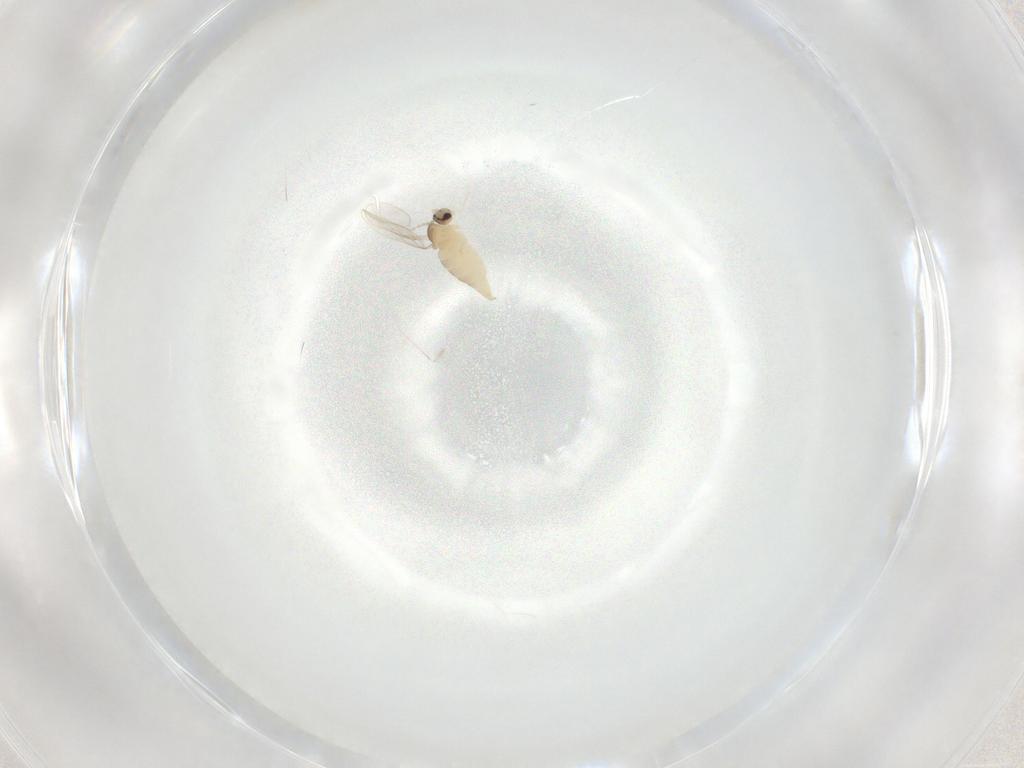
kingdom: Animalia
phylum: Arthropoda
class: Insecta
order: Diptera
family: Cecidomyiidae
